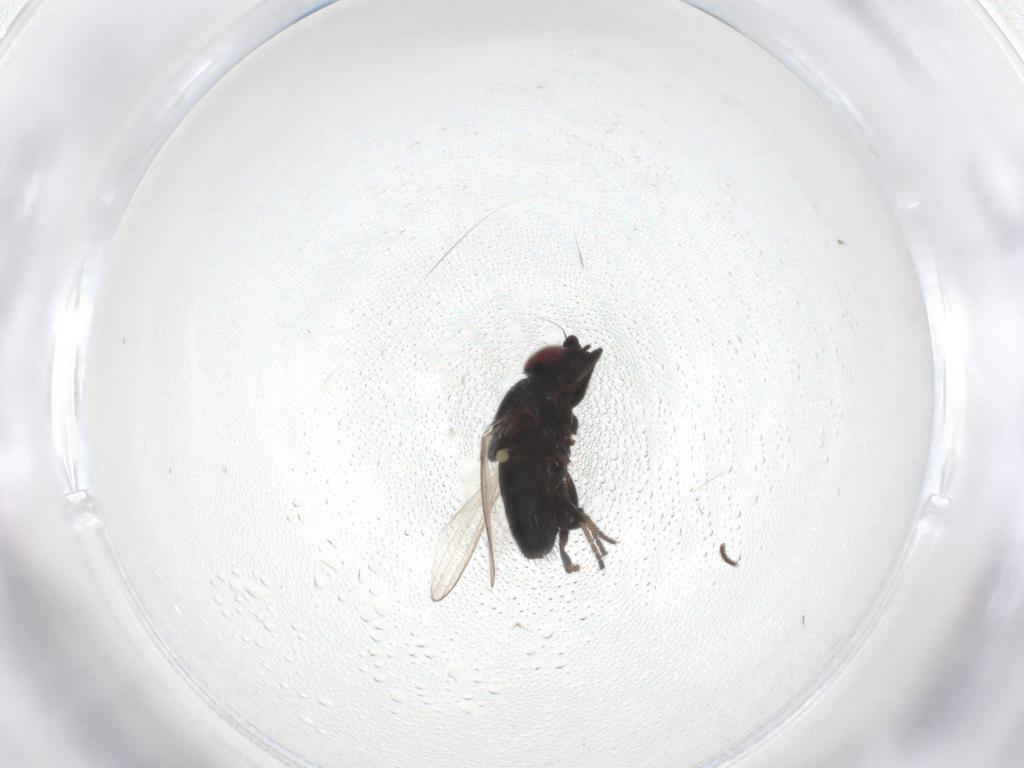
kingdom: Animalia
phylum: Arthropoda
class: Insecta
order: Diptera
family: Milichiidae
